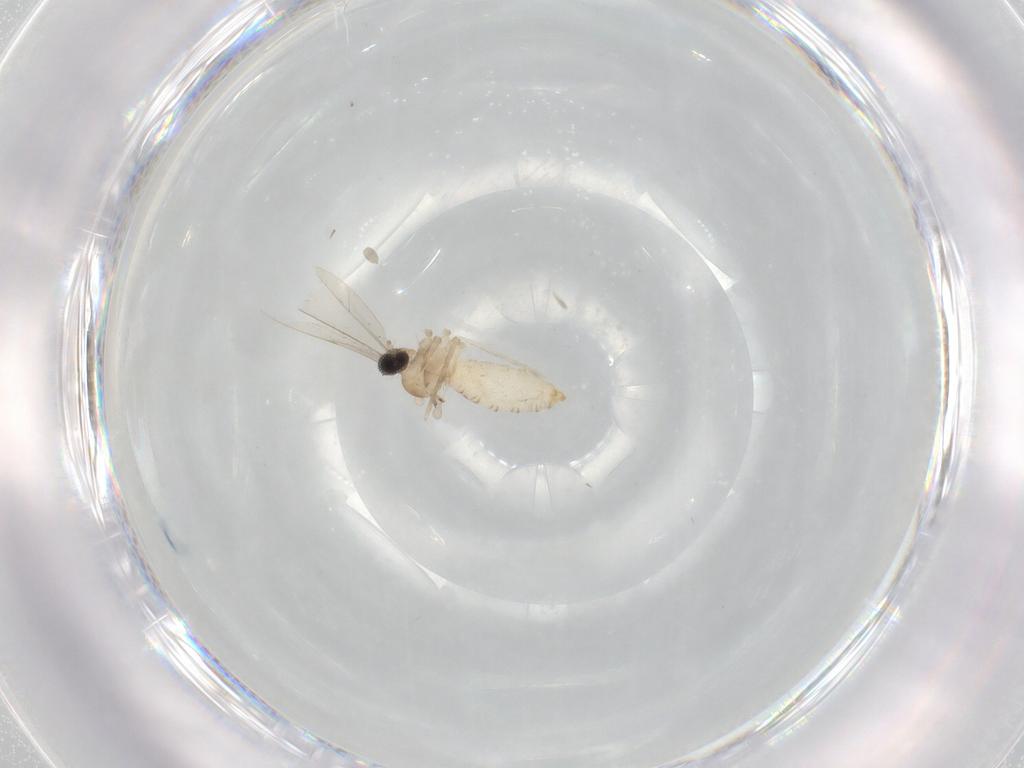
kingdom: Animalia
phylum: Arthropoda
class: Insecta
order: Diptera
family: Cecidomyiidae
